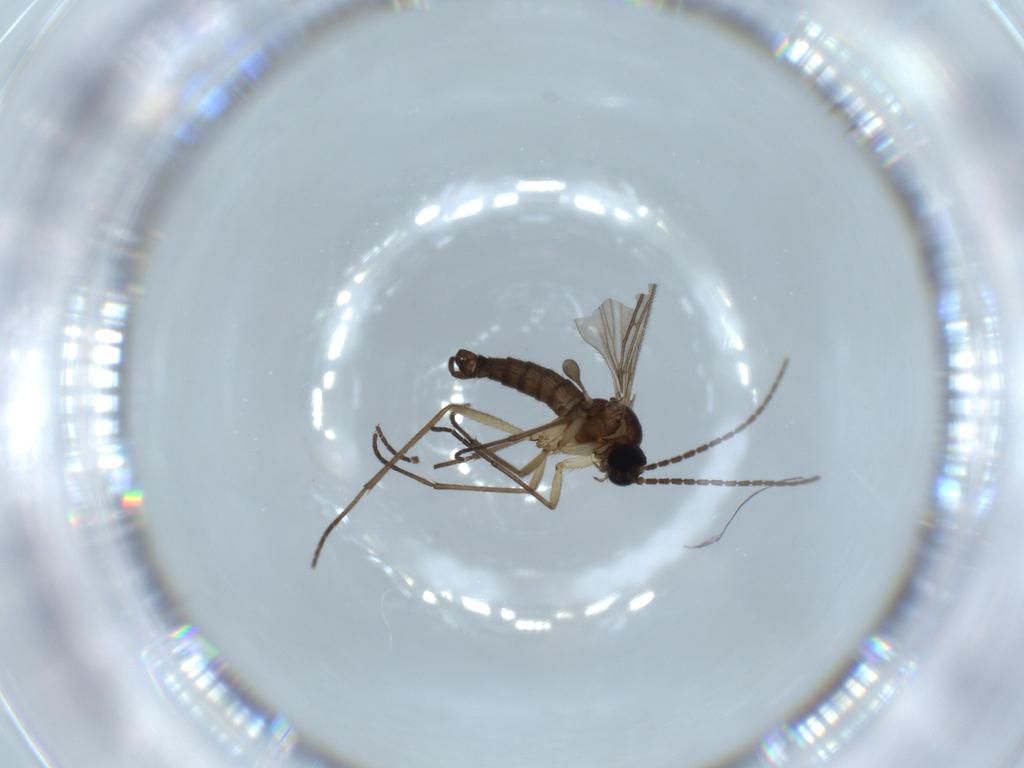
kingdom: Animalia
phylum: Arthropoda
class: Insecta
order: Diptera
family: Sciaridae
